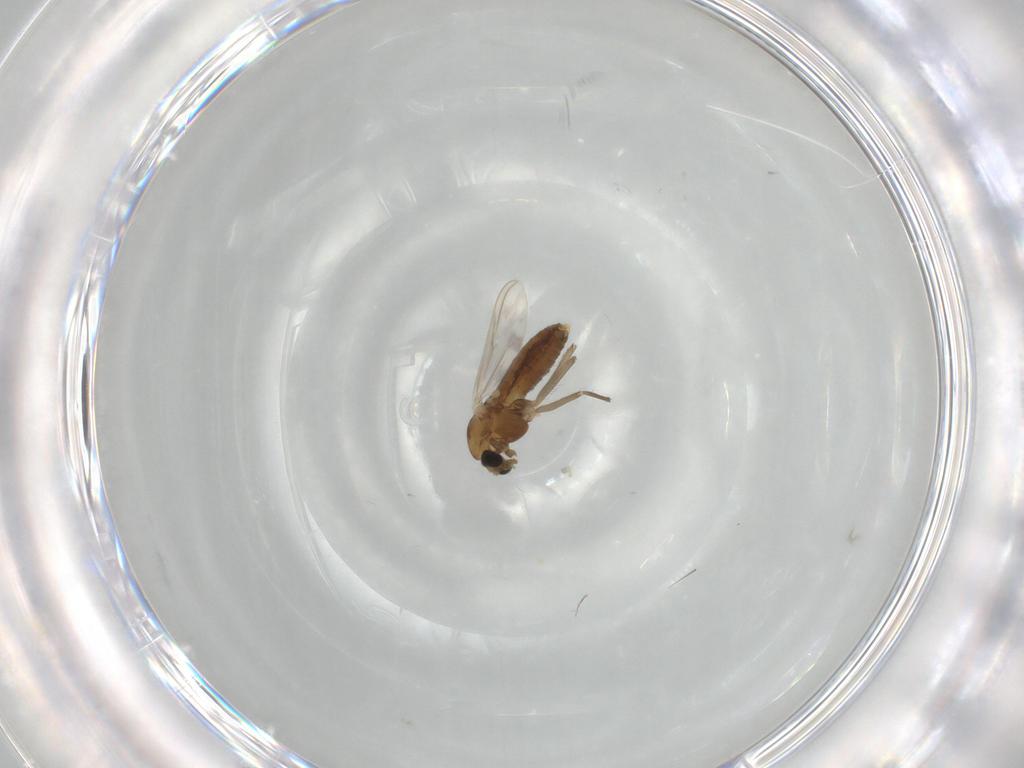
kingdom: Animalia
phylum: Arthropoda
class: Insecta
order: Diptera
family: Chironomidae
